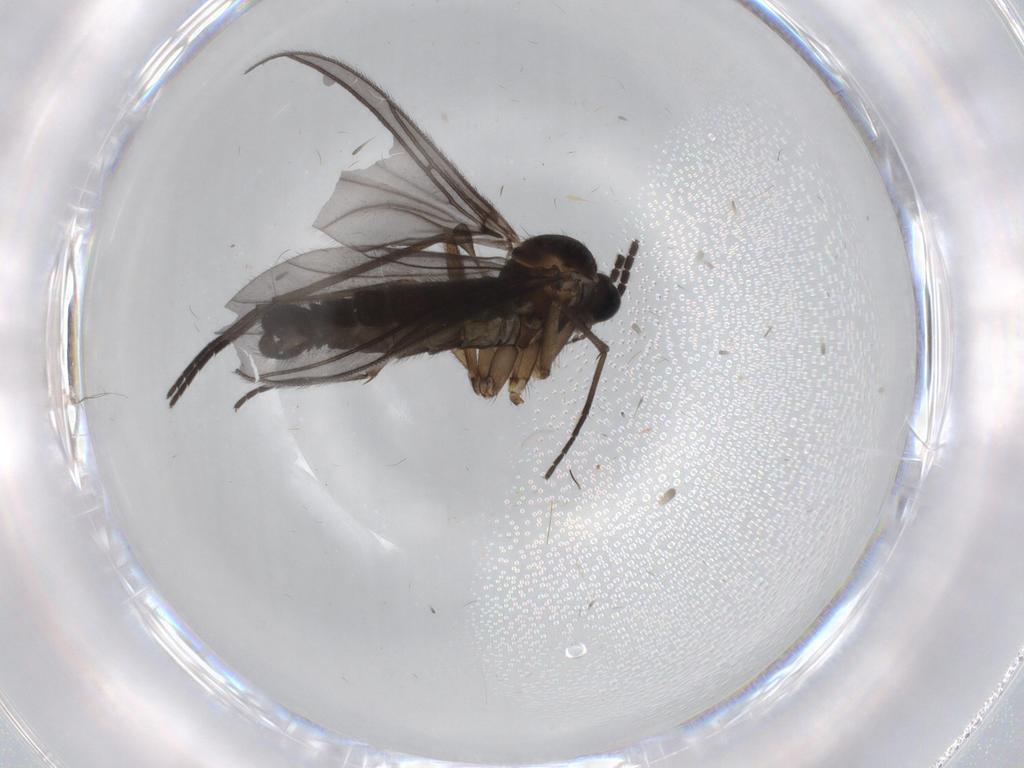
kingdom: Animalia
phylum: Arthropoda
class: Insecta
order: Diptera
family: Sciaridae
